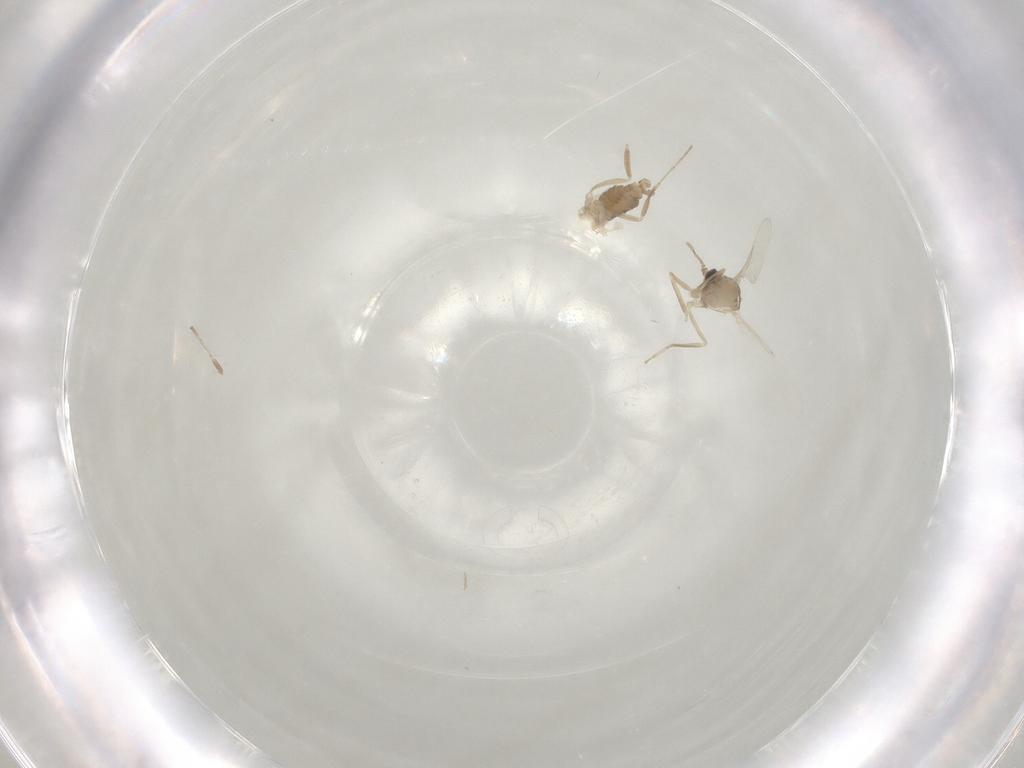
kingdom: Animalia
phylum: Arthropoda
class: Insecta
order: Diptera
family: Cecidomyiidae
